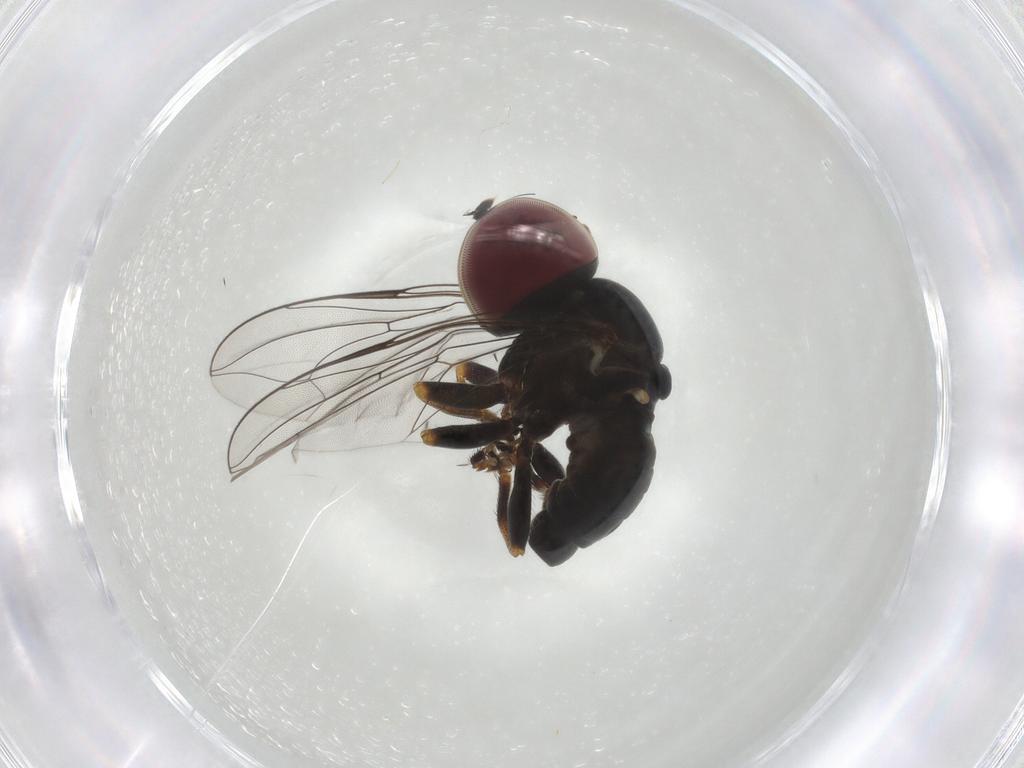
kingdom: Animalia
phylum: Arthropoda
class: Insecta
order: Diptera
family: Pipunculidae
